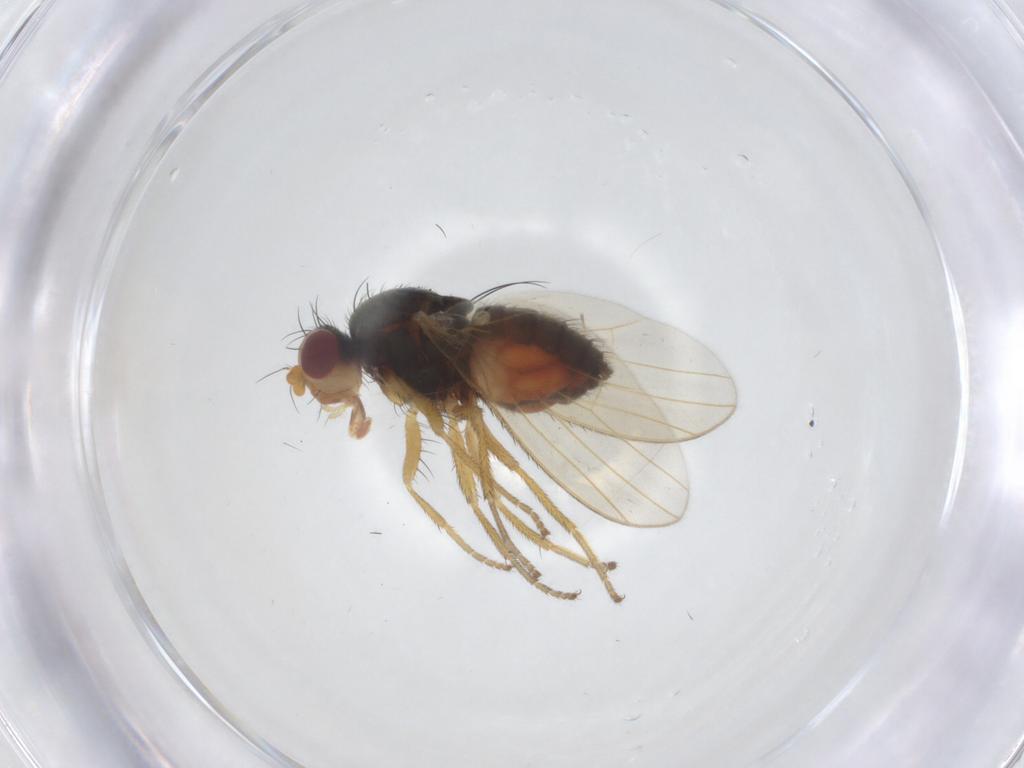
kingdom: Animalia
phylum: Arthropoda
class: Insecta
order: Diptera
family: Heleomyzidae
